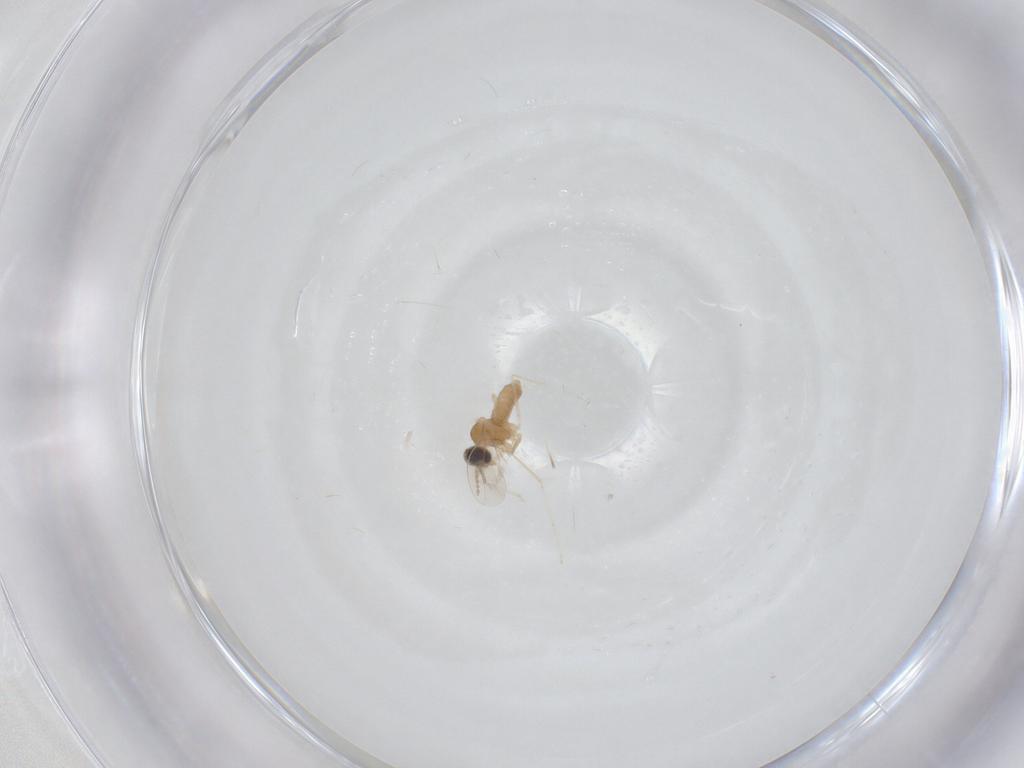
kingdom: Animalia
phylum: Arthropoda
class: Insecta
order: Diptera
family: Cecidomyiidae
